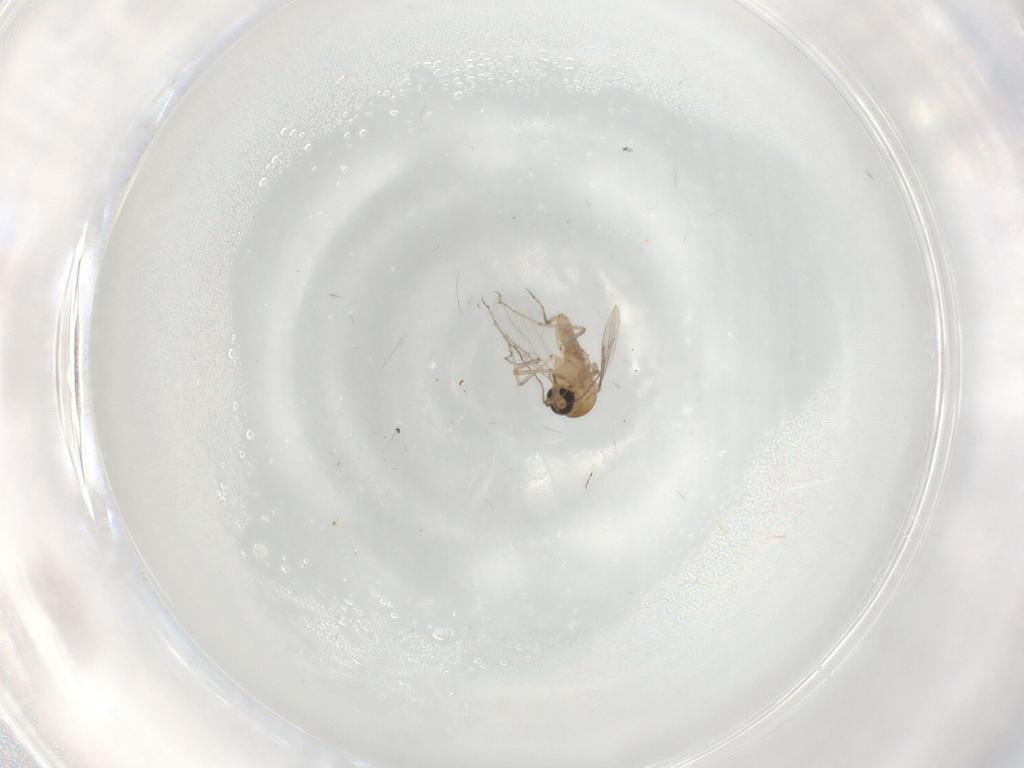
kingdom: Animalia
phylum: Arthropoda
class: Insecta
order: Diptera
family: Ceratopogonidae
